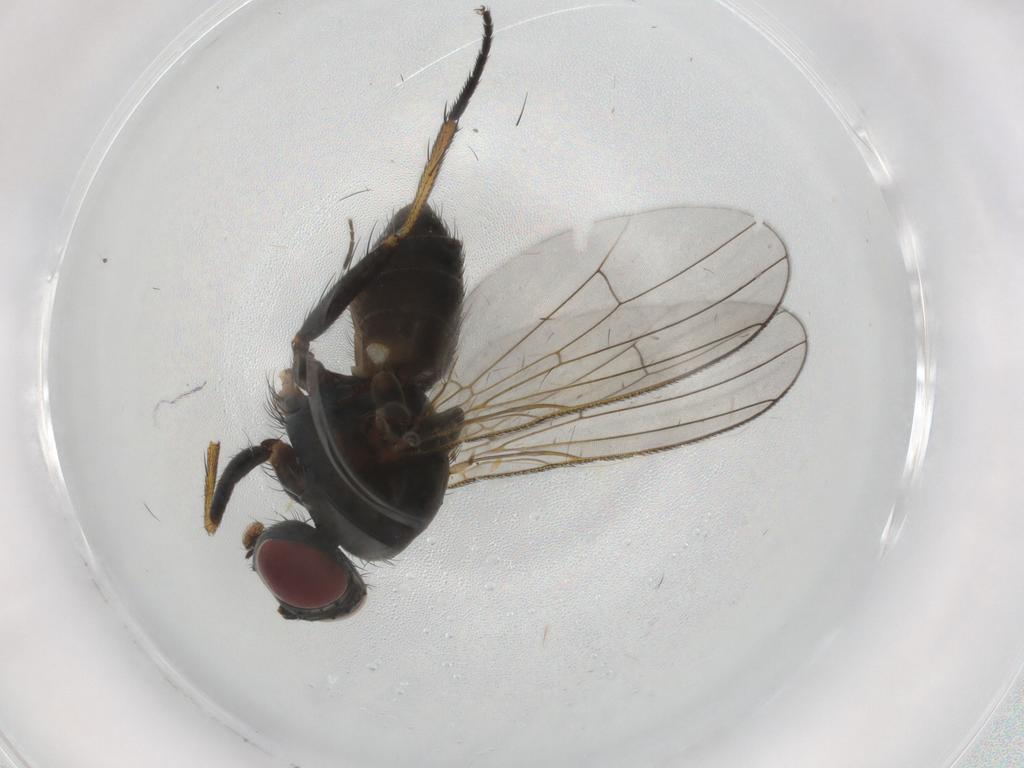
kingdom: Animalia
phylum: Arthropoda
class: Insecta
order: Diptera
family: Muscidae
